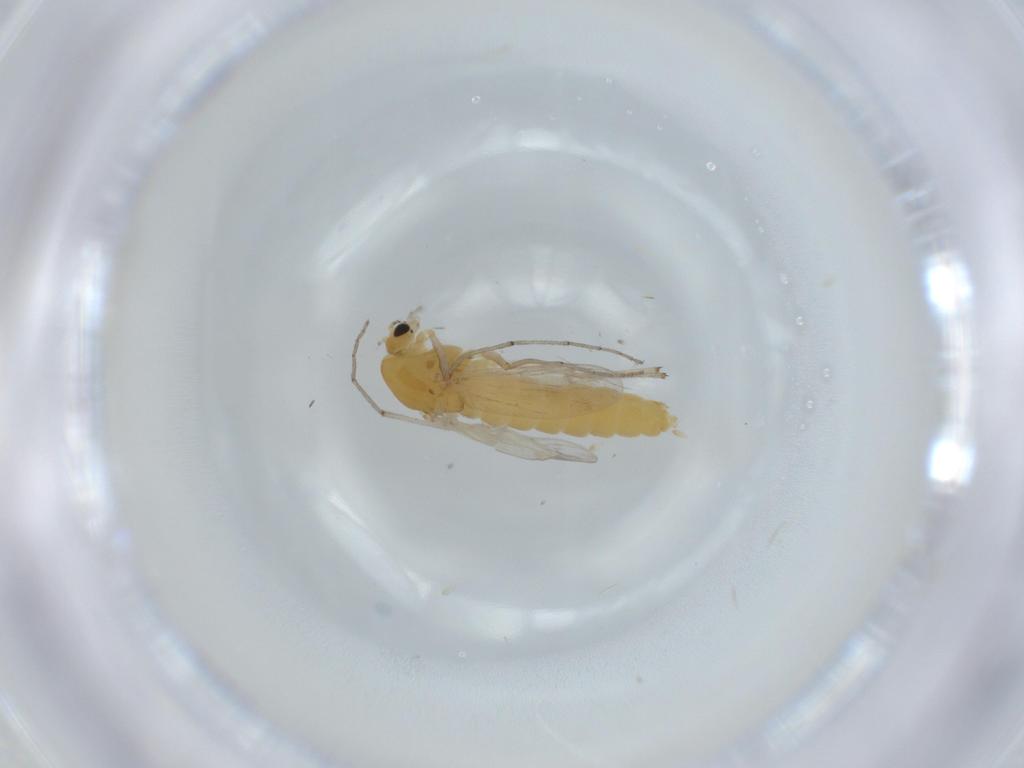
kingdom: Animalia
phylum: Arthropoda
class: Insecta
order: Diptera
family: Chironomidae
